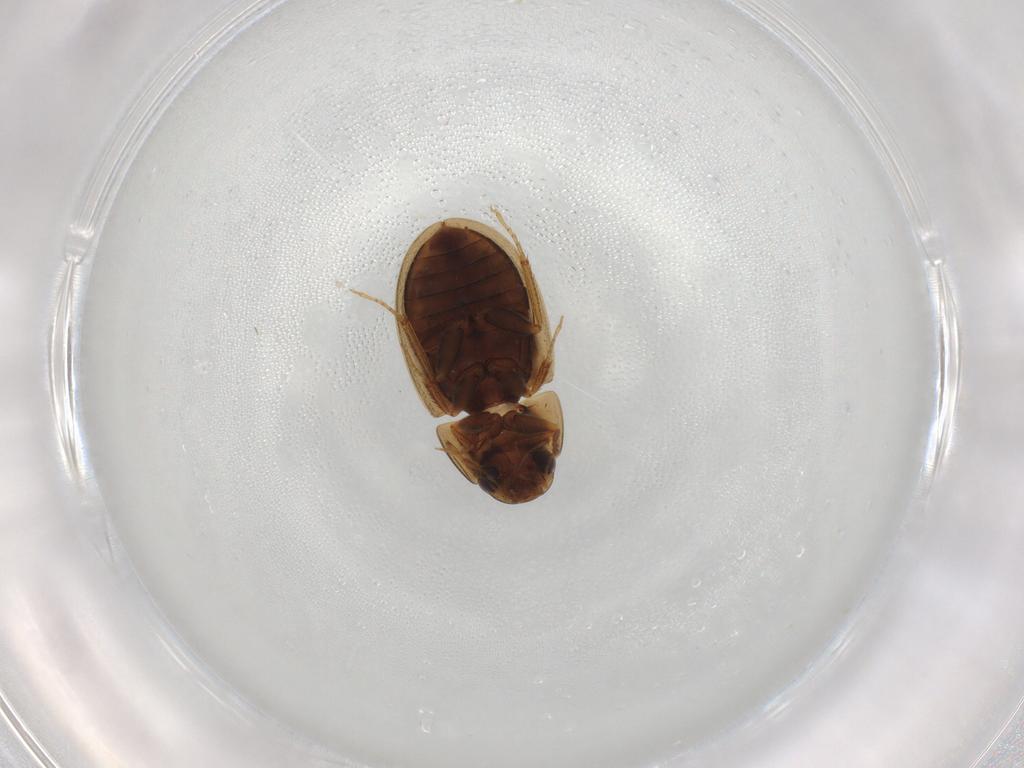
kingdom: Animalia
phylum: Arthropoda
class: Insecta
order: Coleoptera
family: Hydrophilidae
